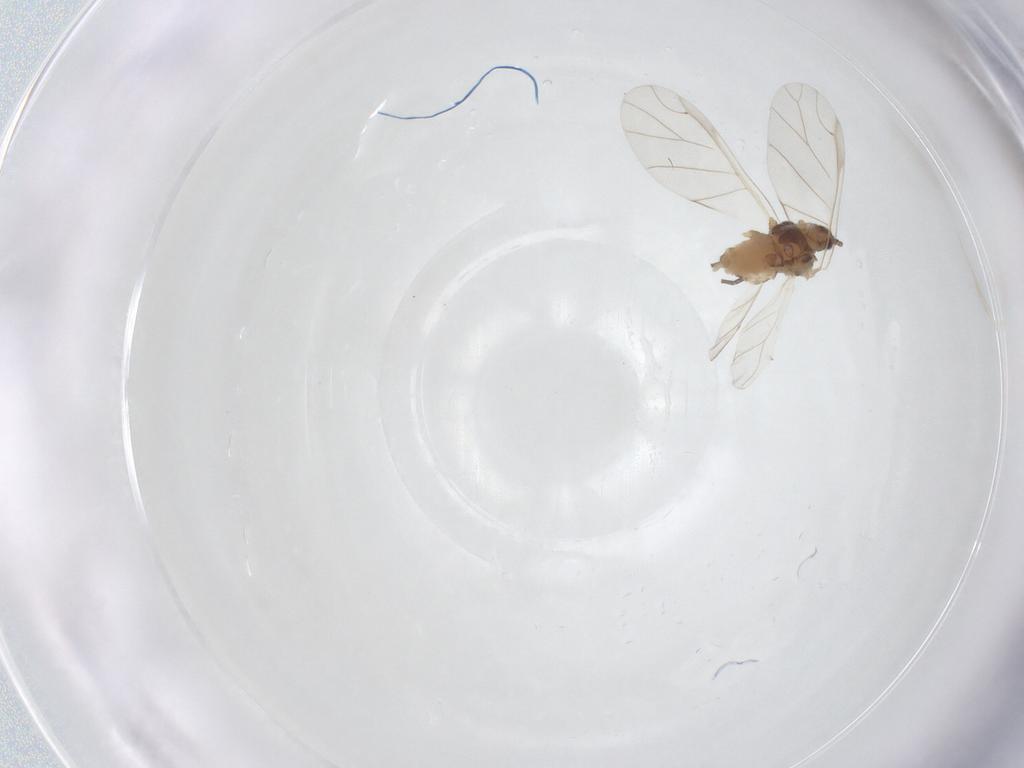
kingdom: Animalia
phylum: Arthropoda
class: Insecta
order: Hemiptera
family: Aphididae
